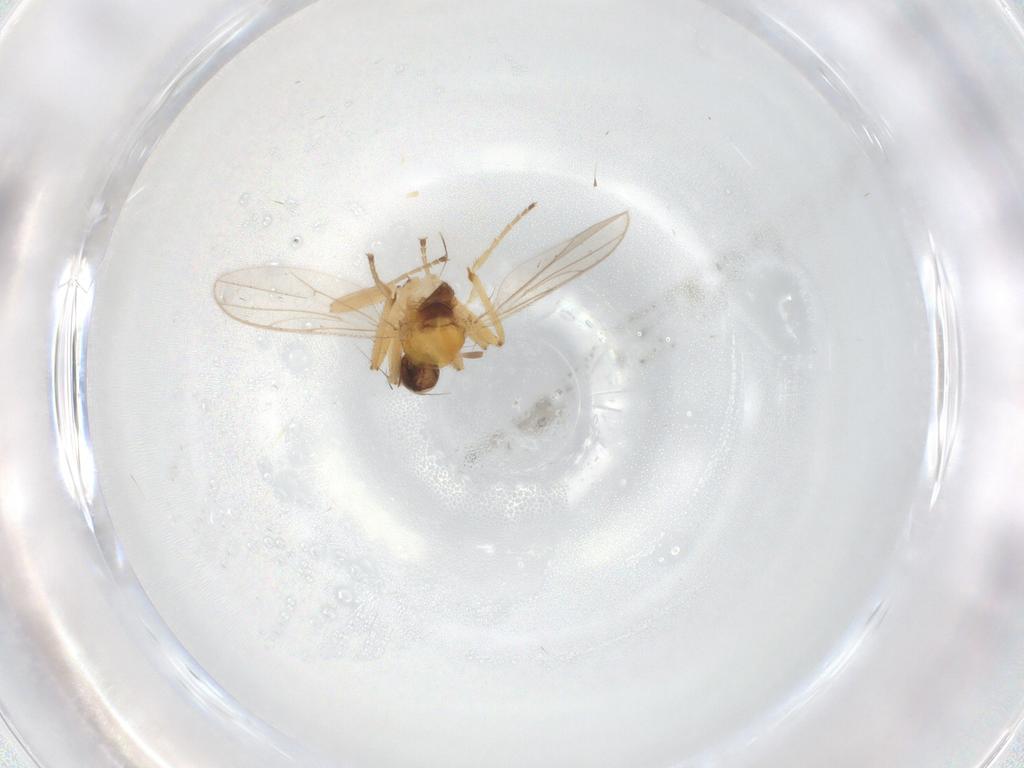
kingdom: Animalia
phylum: Arthropoda
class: Insecta
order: Diptera
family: Hybotidae
